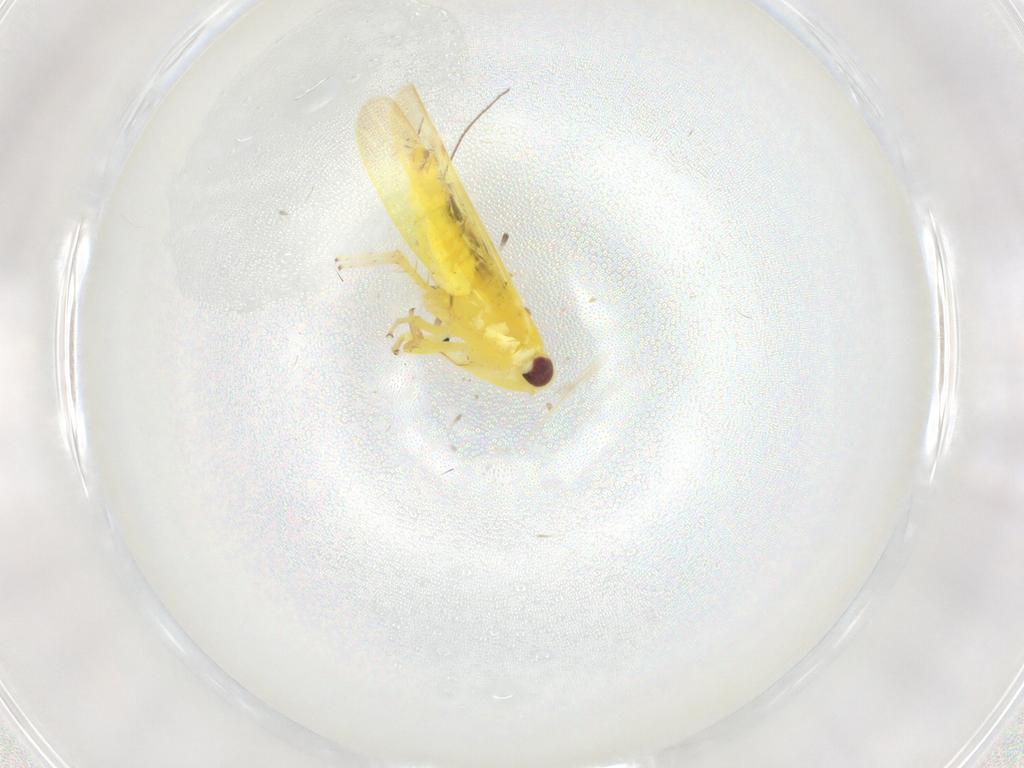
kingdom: Animalia
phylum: Arthropoda
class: Insecta
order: Hemiptera
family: Cicadellidae
